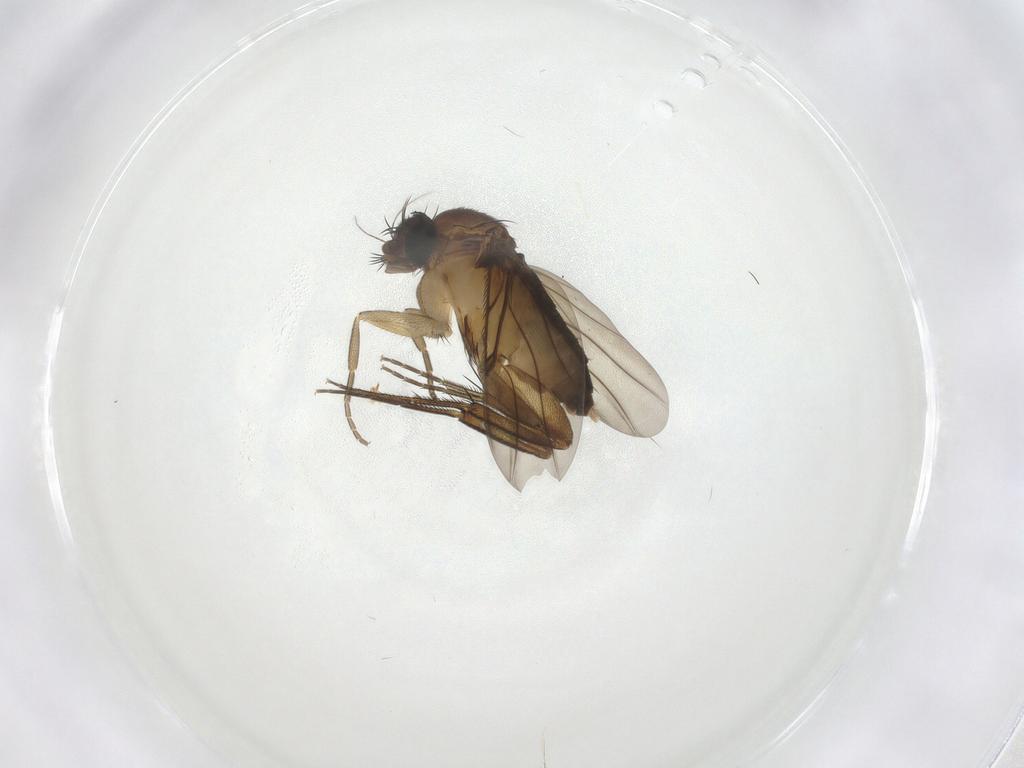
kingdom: Animalia
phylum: Arthropoda
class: Insecta
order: Diptera
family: Phoridae
